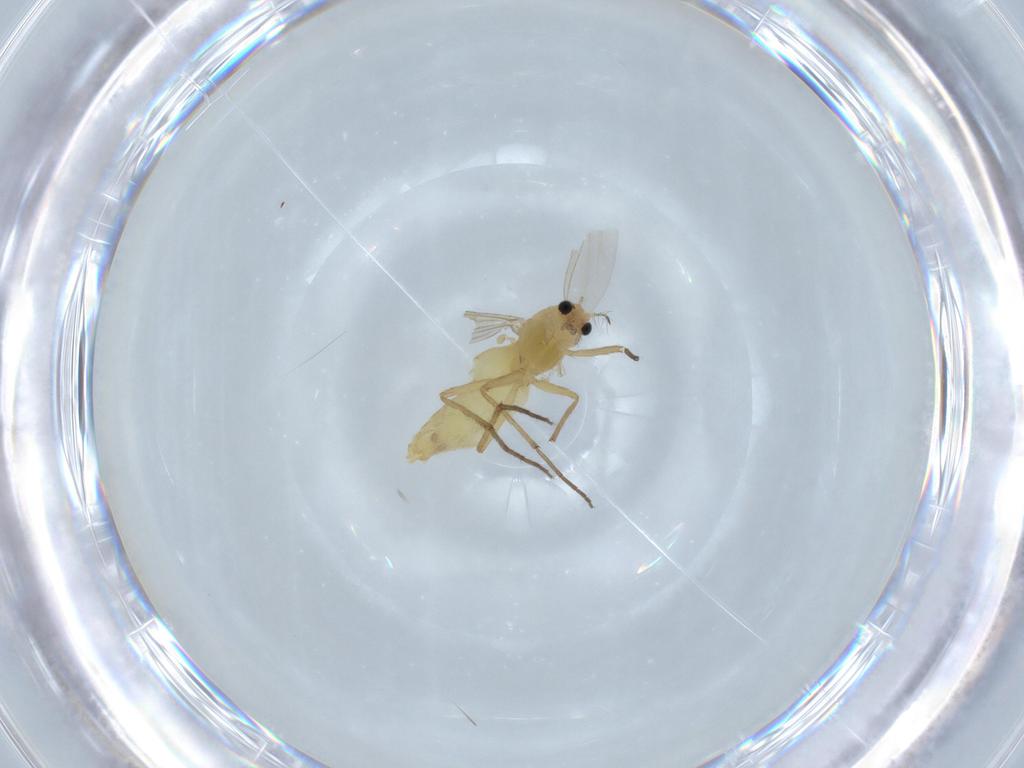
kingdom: Animalia
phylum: Arthropoda
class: Insecta
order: Diptera
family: Chironomidae
